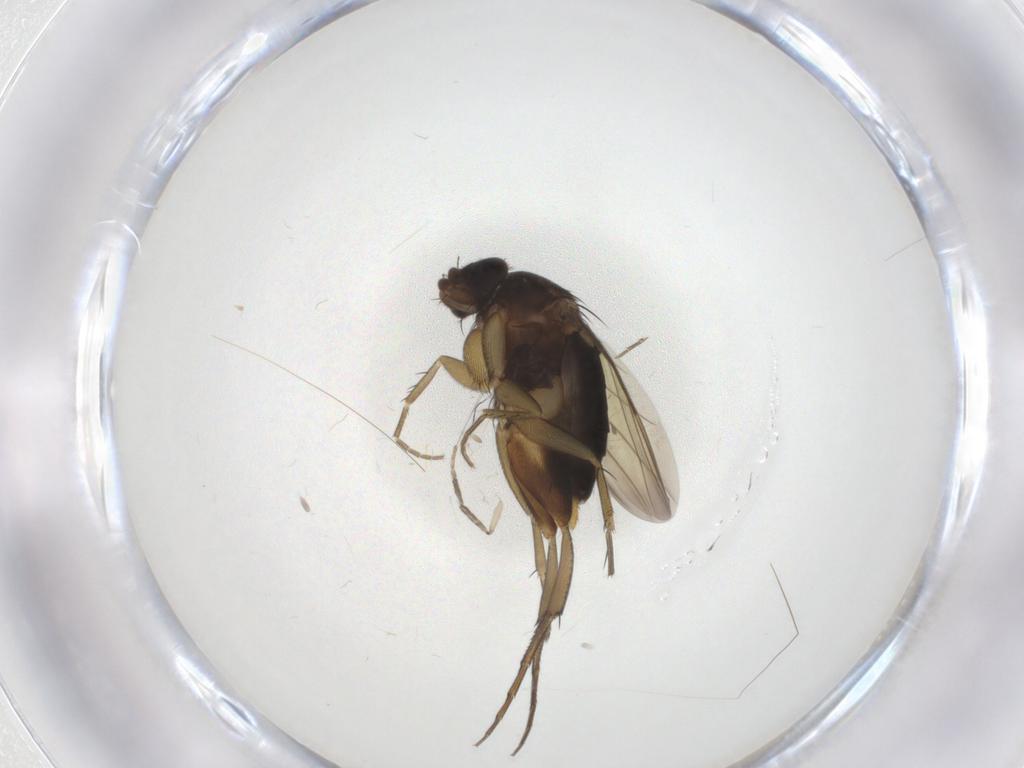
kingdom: Animalia
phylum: Arthropoda
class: Insecta
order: Diptera
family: Phoridae
